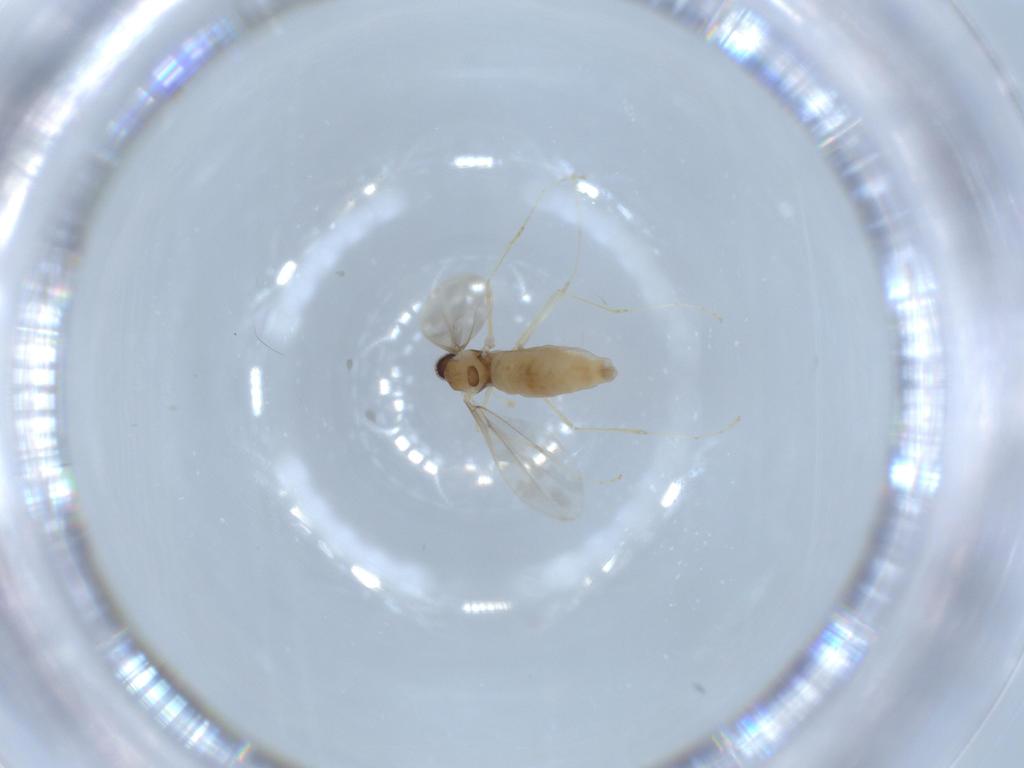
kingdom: Animalia
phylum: Arthropoda
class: Insecta
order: Diptera
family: Cecidomyiidae
